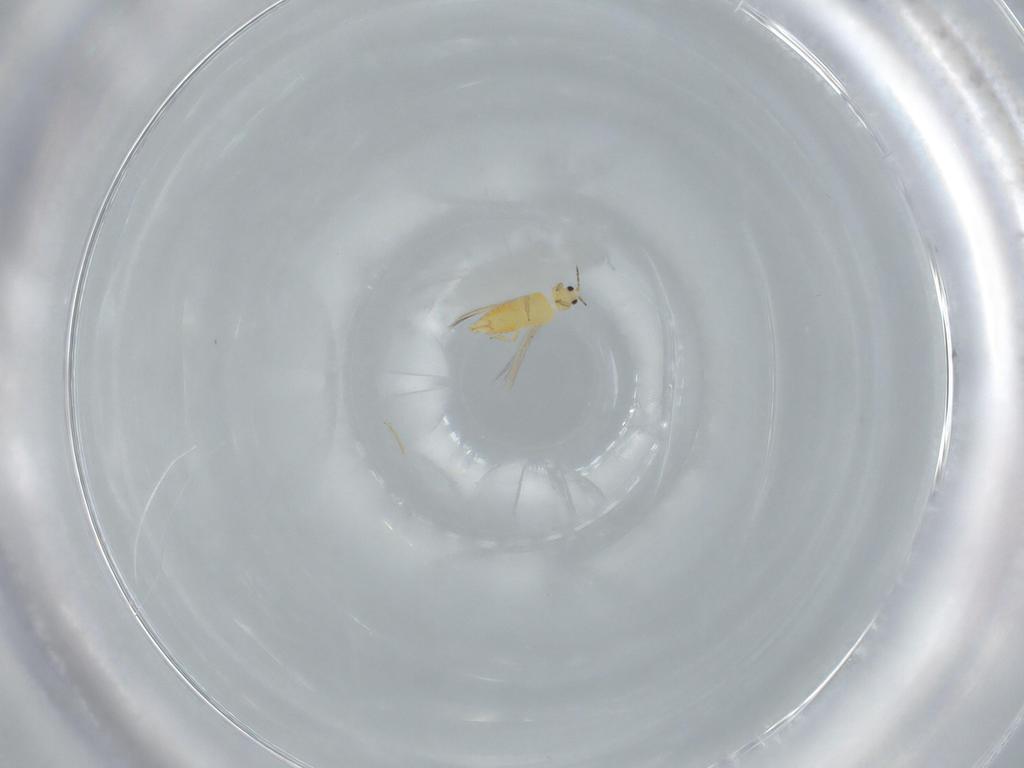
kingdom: Animalia
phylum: Arthropoda
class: Insecta
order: Thysanoptera
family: Thripidae
